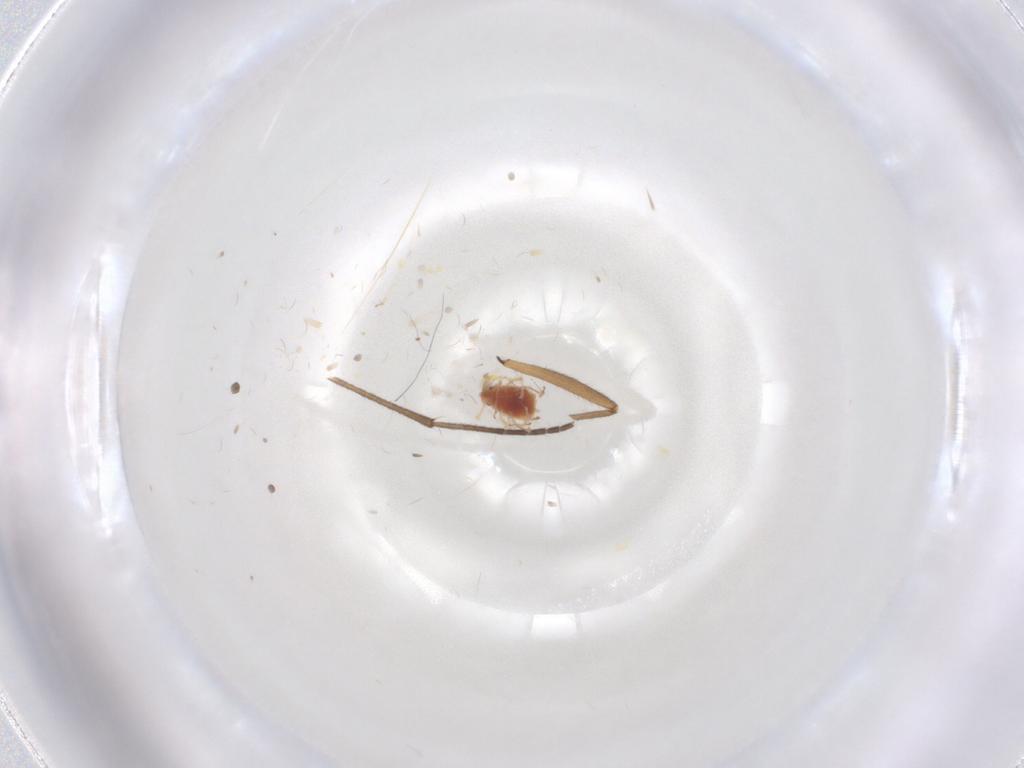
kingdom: Animalia
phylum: Arthropoda
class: Insecta
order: Hemiptera
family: Aphididae
